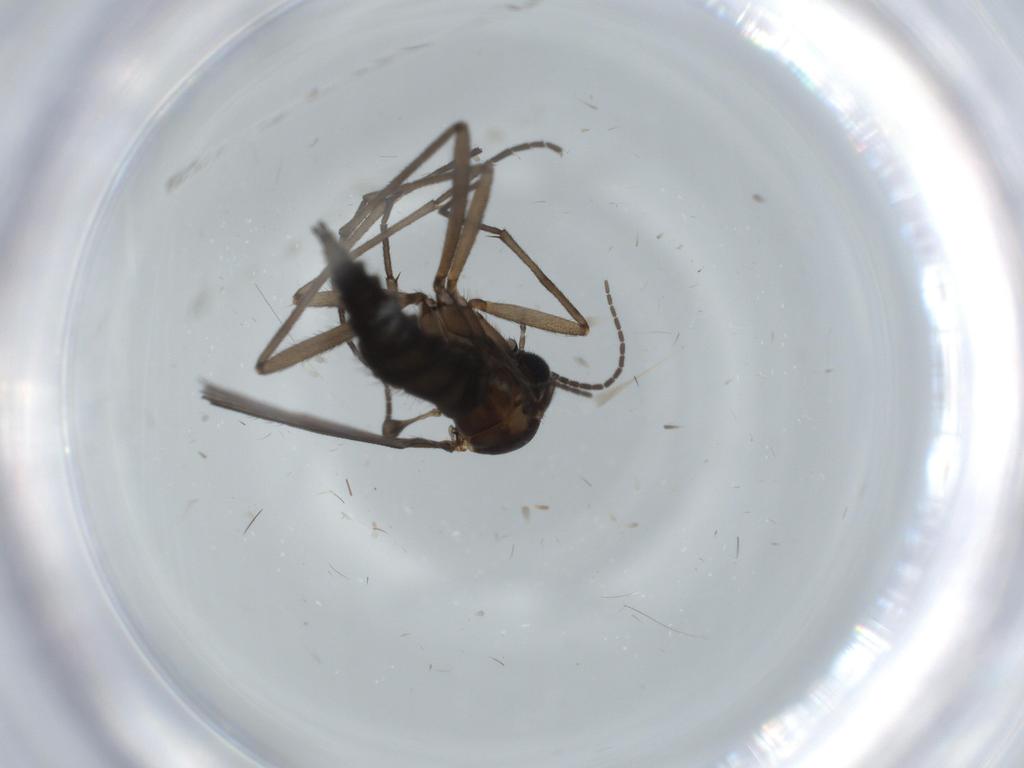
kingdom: Animalia
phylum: Arthropoda
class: Insecta
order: Diptera
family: Sciaridae
